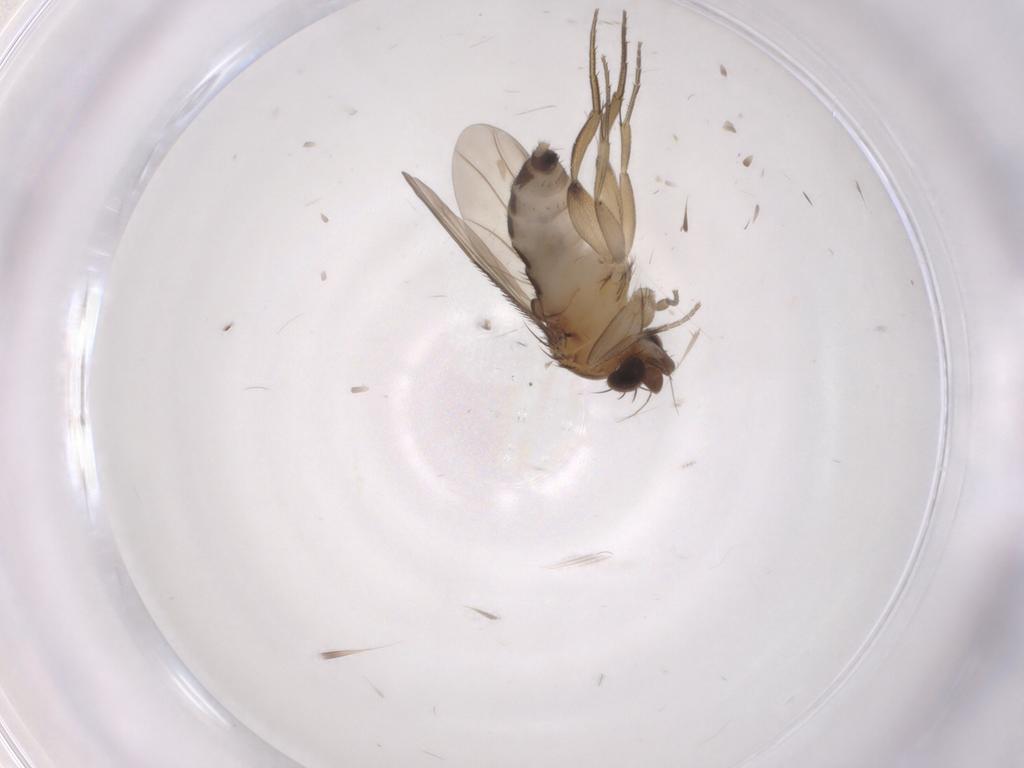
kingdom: Animalia
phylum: Arthropoda
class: Insecta
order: Diptera
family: Phoridae
